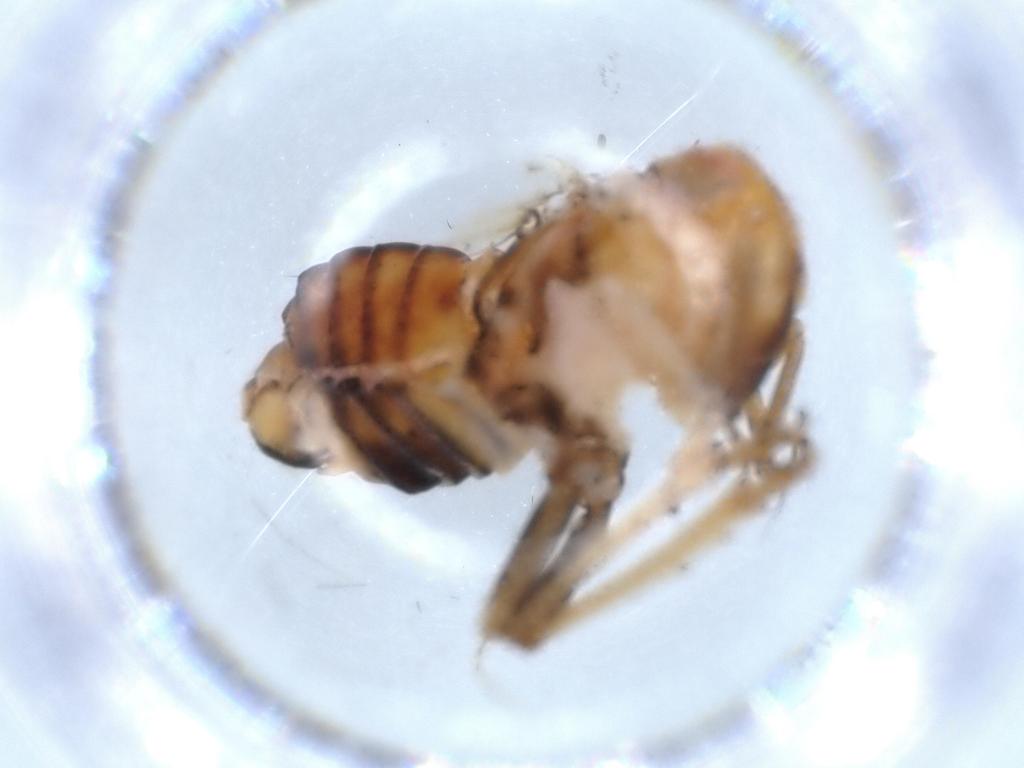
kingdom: Animalia
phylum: Arthropoda
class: Insecta
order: Hemiptera
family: Tropiduchidae
